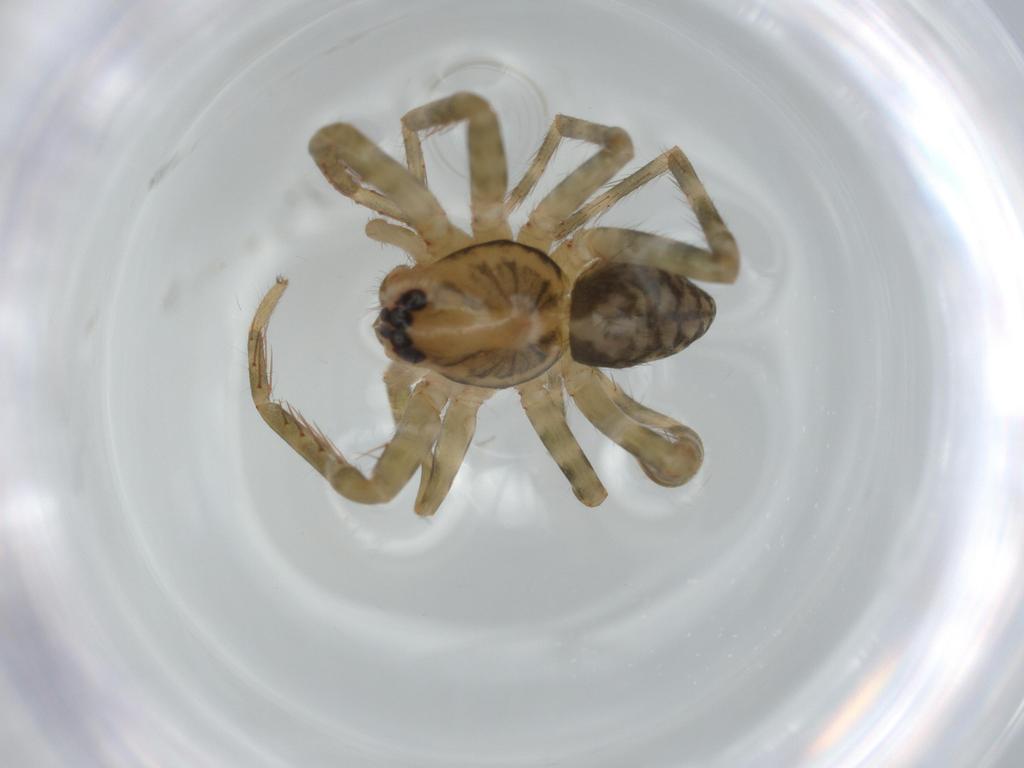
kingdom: Animalia
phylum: Arthropoda
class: Arachnida
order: Araneae
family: Ctenidae
